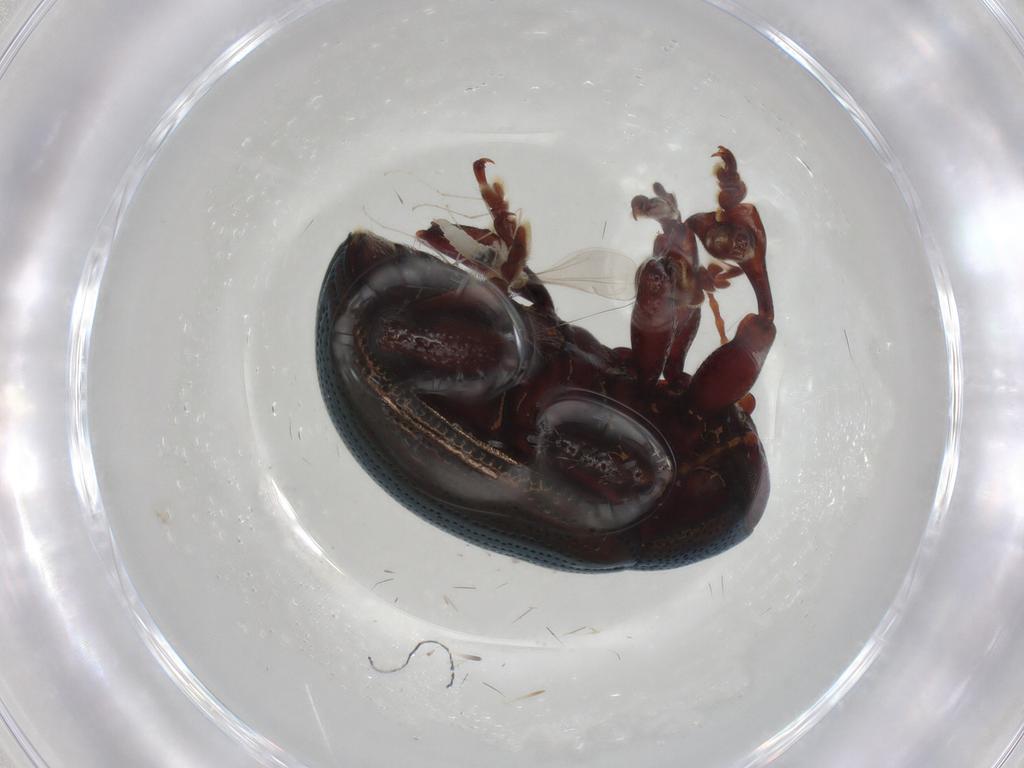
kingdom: Animalia
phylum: Arthropoda
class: Insecta
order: Coleoptera
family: Chrysomelidae
